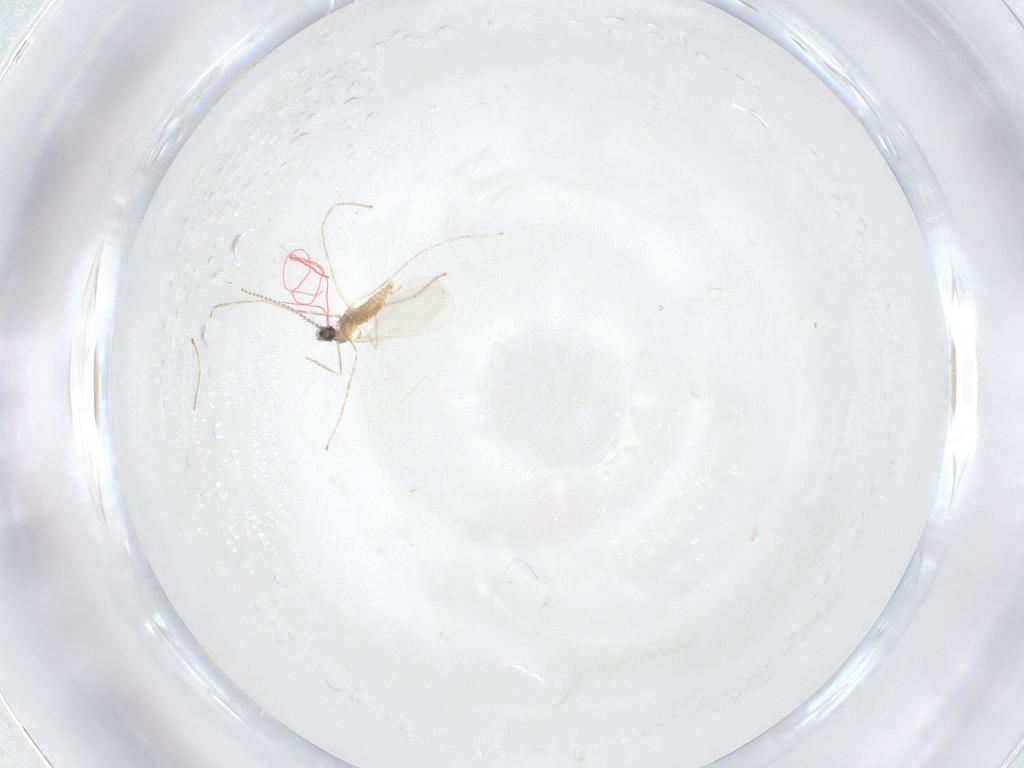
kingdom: Animalia
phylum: Arthropoda
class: Insecta
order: Diptera
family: Cecidomyiidae
